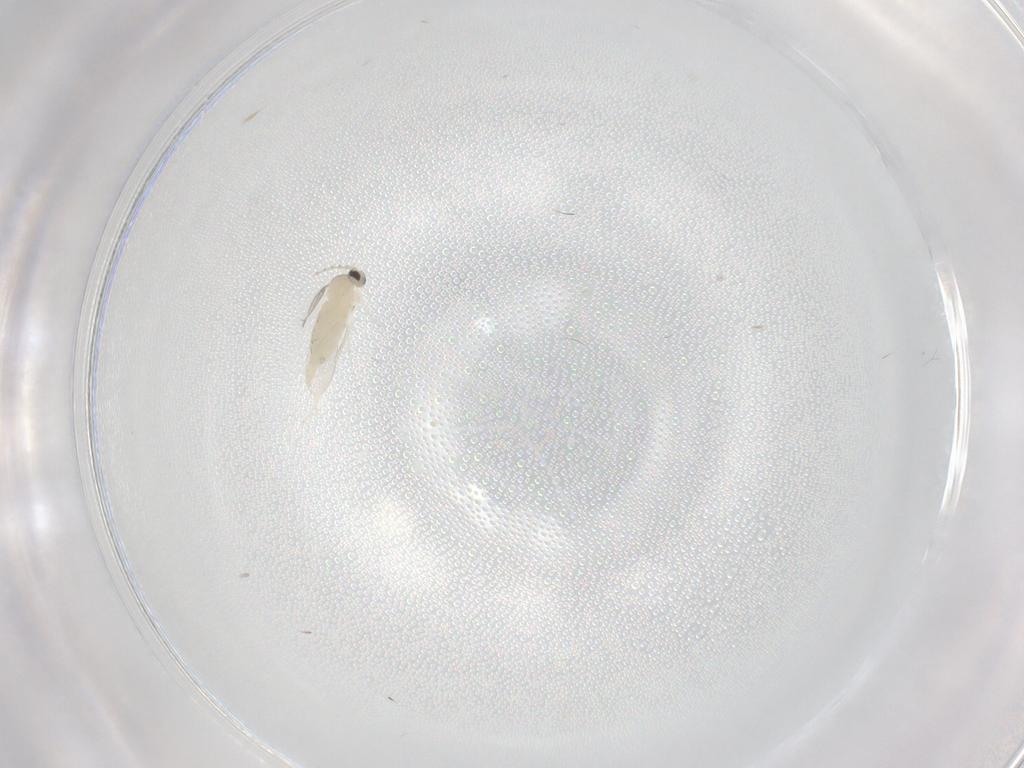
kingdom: Animalia
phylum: Arthropoda
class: Insecta
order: Diptera
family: Cecidomyiidae
